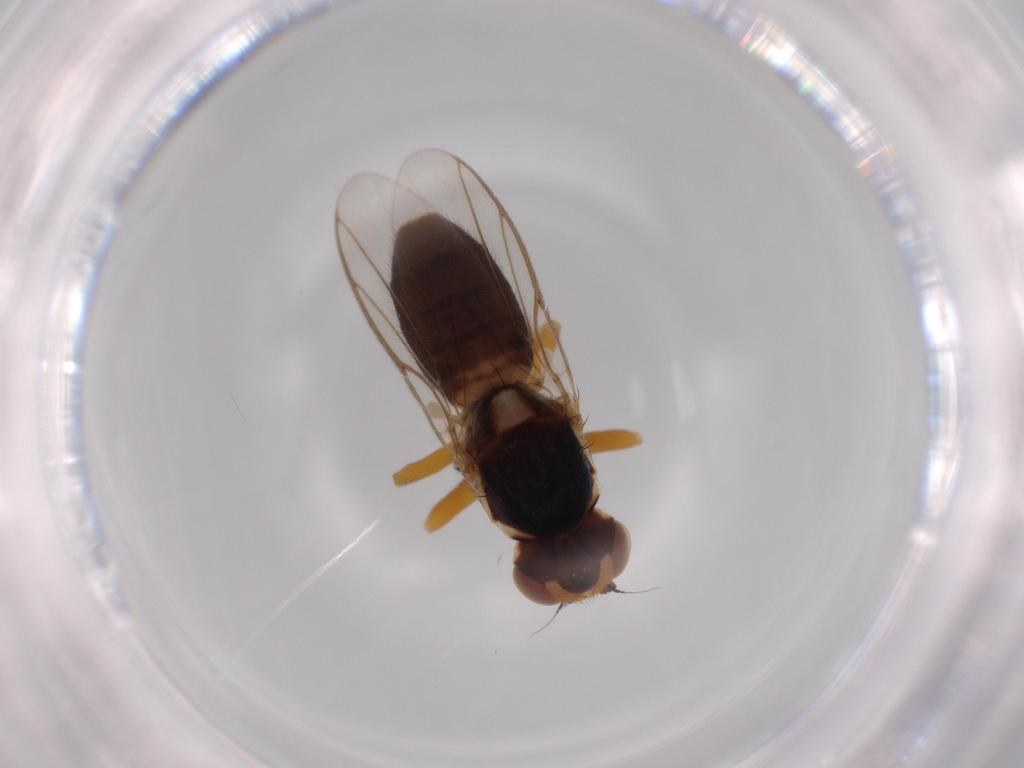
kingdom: Animalia
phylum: Arthropoda
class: Insecta
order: Diptera
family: Chloropidae
